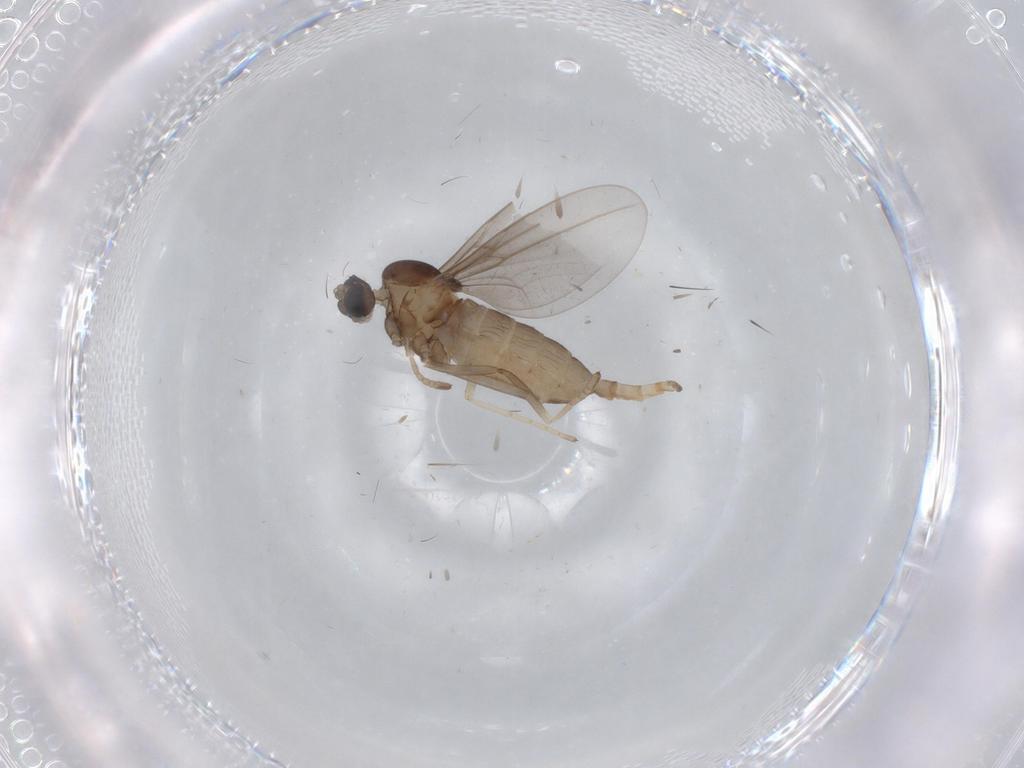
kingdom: Animalia
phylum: Arthropoda
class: Insecta
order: Diptera
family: Cecidomyiidae
